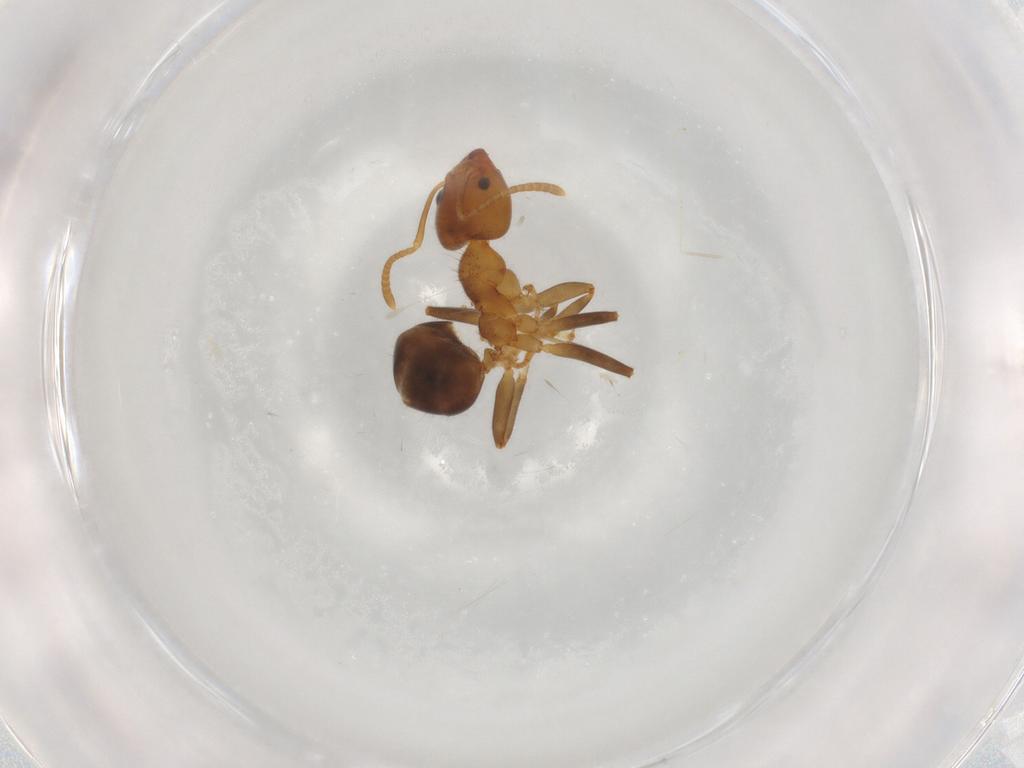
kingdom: Animalia
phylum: Arthropoda
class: Insecta
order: Hymenoptera
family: Formicidae
